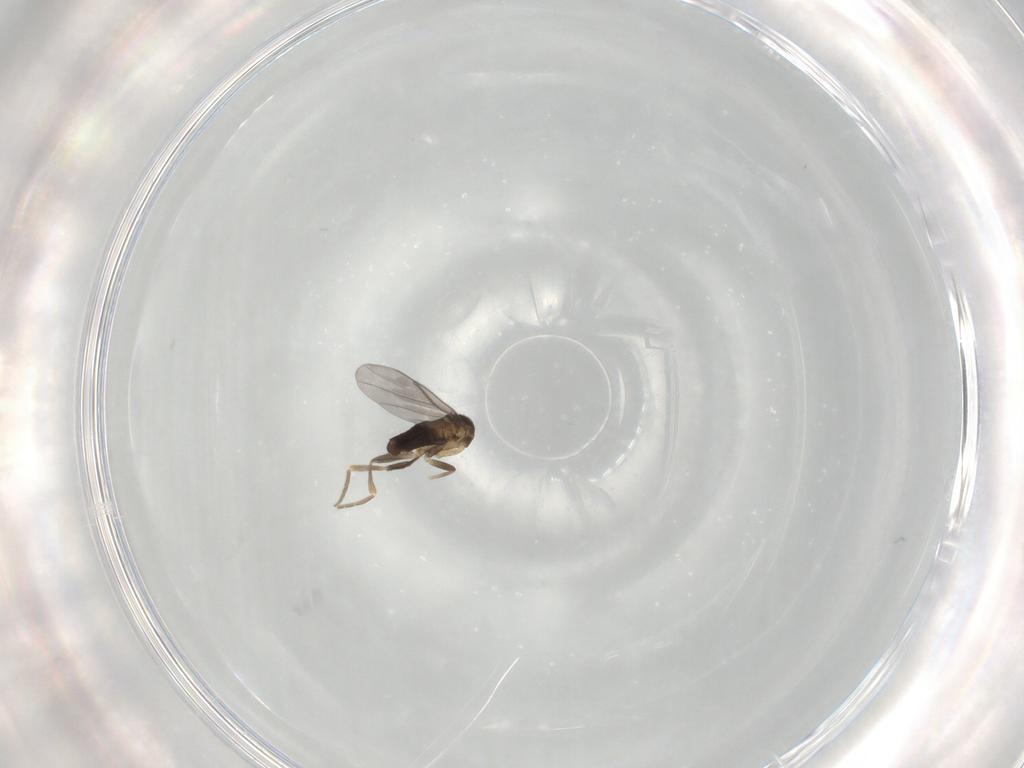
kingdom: Animalia
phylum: Arthropoda
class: Insecta
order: Diptera
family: Ceratopogonidae
